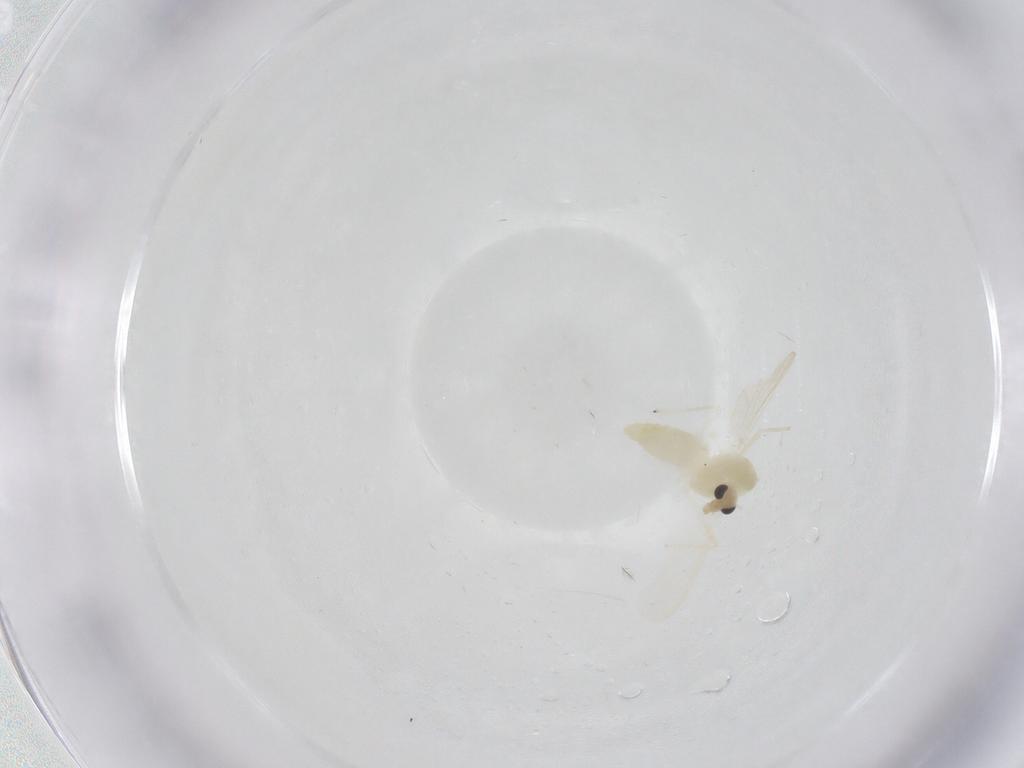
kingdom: Animalia
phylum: Arthropoda
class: Insecta
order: Diptera
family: Chironomidae
